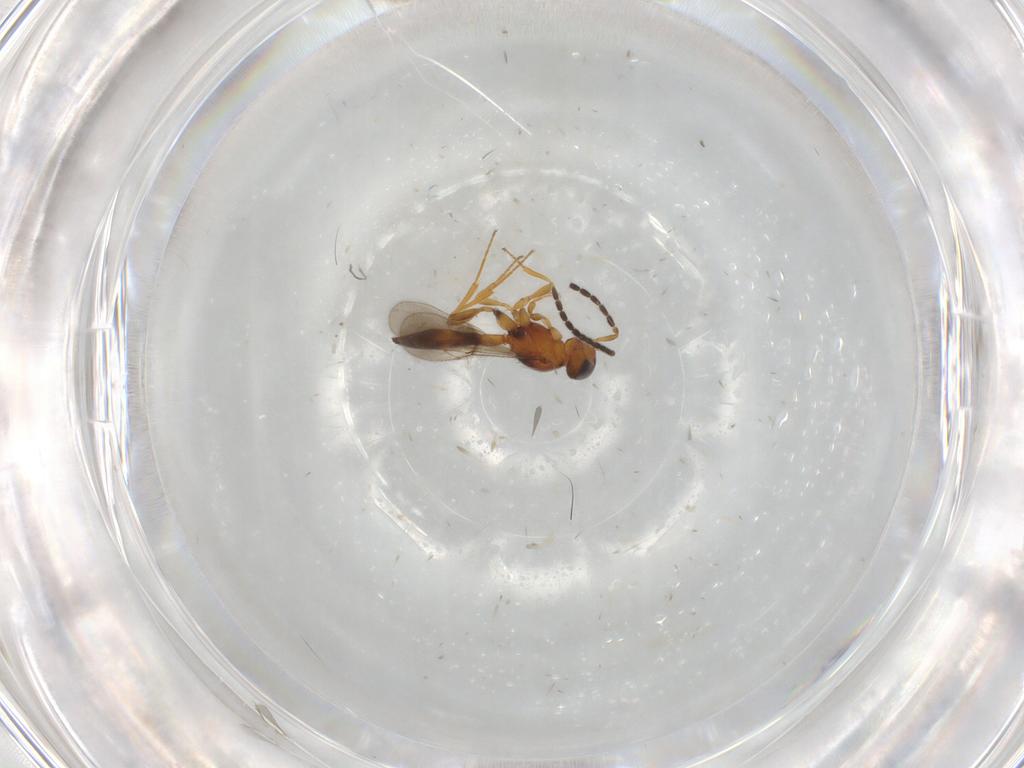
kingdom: Animalia
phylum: Arthropoda
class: Insecta
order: Hymenoptera
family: Scelionidae
